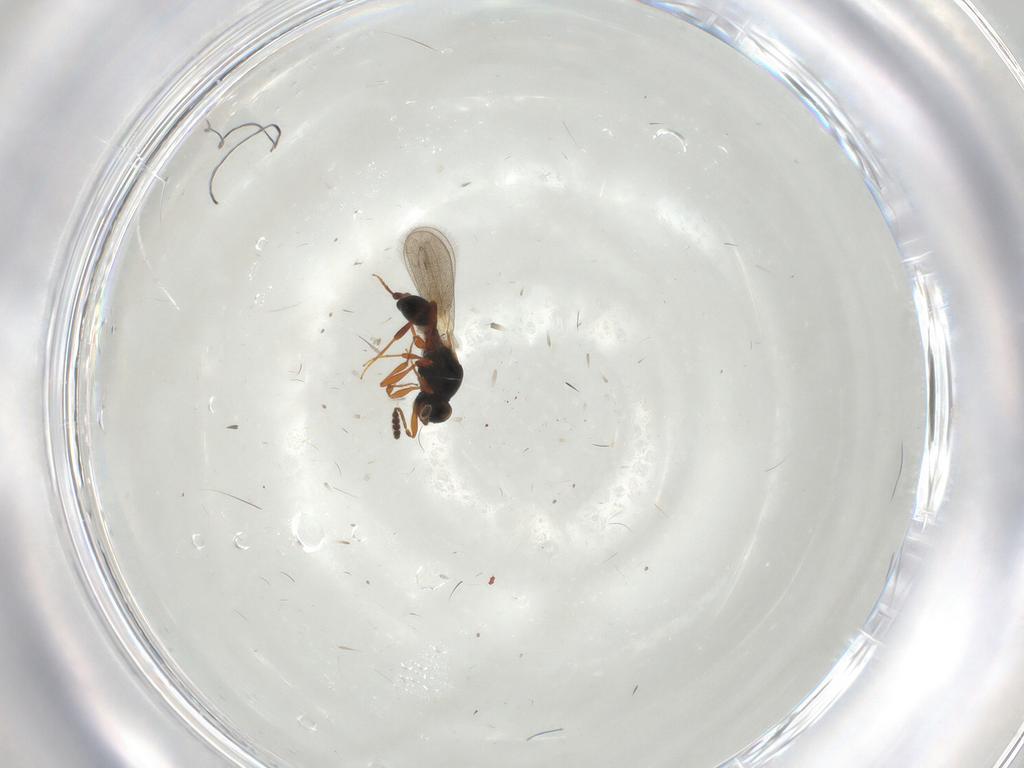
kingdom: Animalia
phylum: Arthropoda
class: Insecta
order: Hymenoptera
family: Platygastridae
